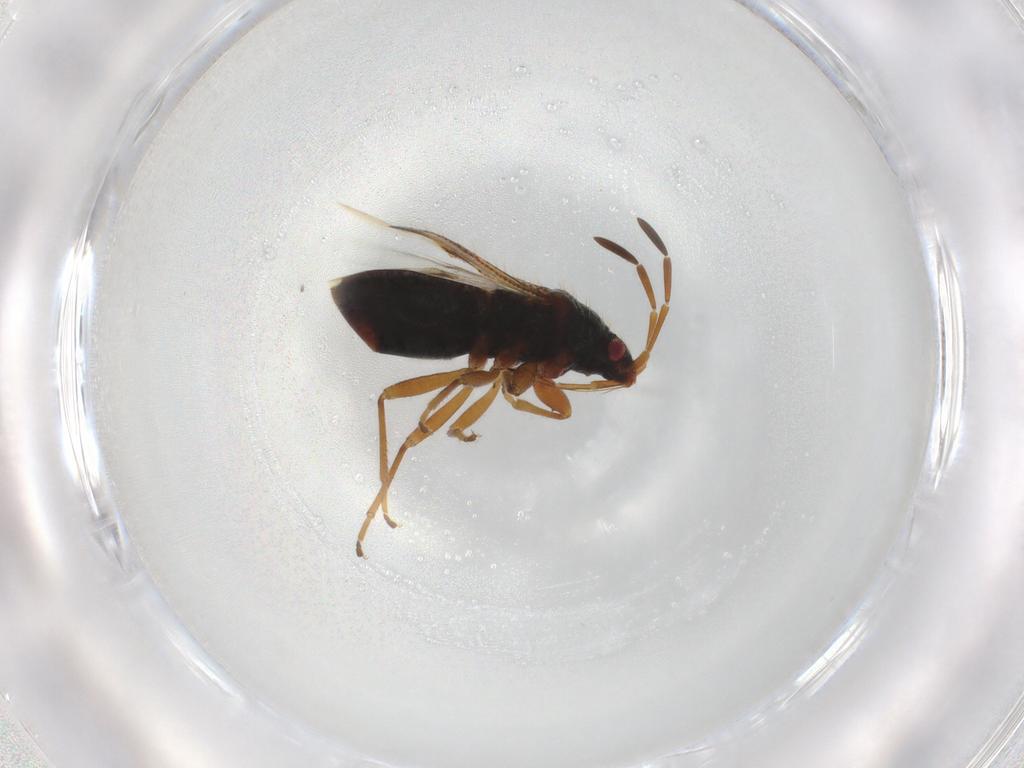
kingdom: Animalia
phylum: Arthropoda
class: Insecta
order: Hemiptera
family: Rhyparochromidae
